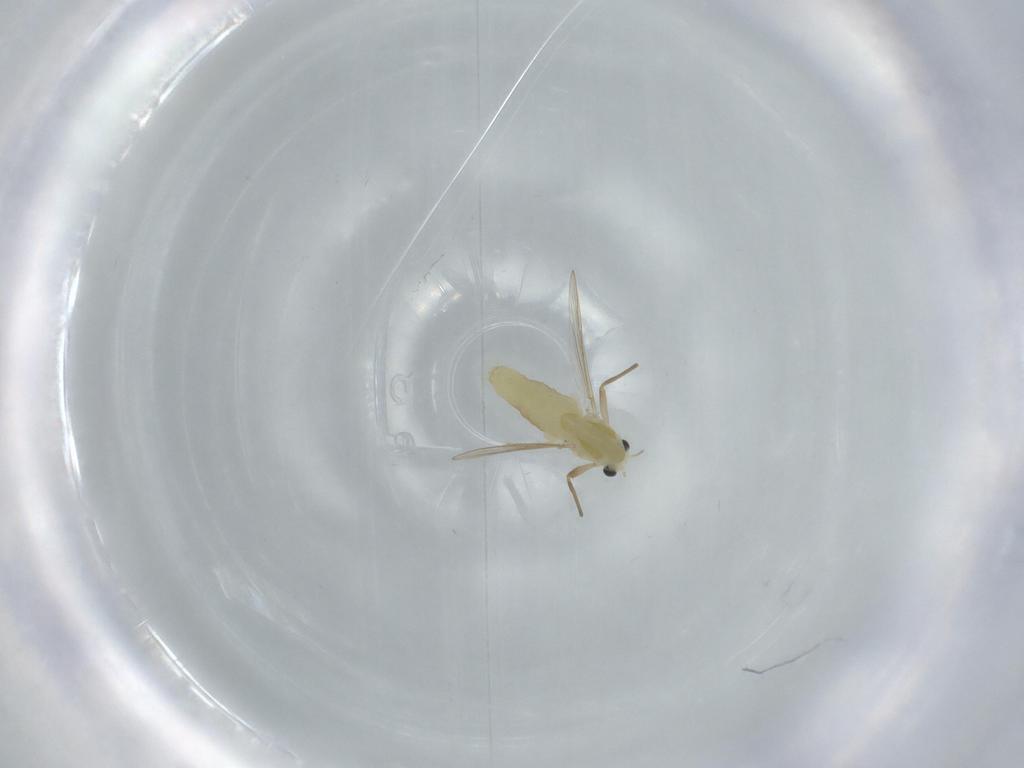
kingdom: Animalia
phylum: Arthropoda
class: Insecta
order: Diptera
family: Chironomidae
